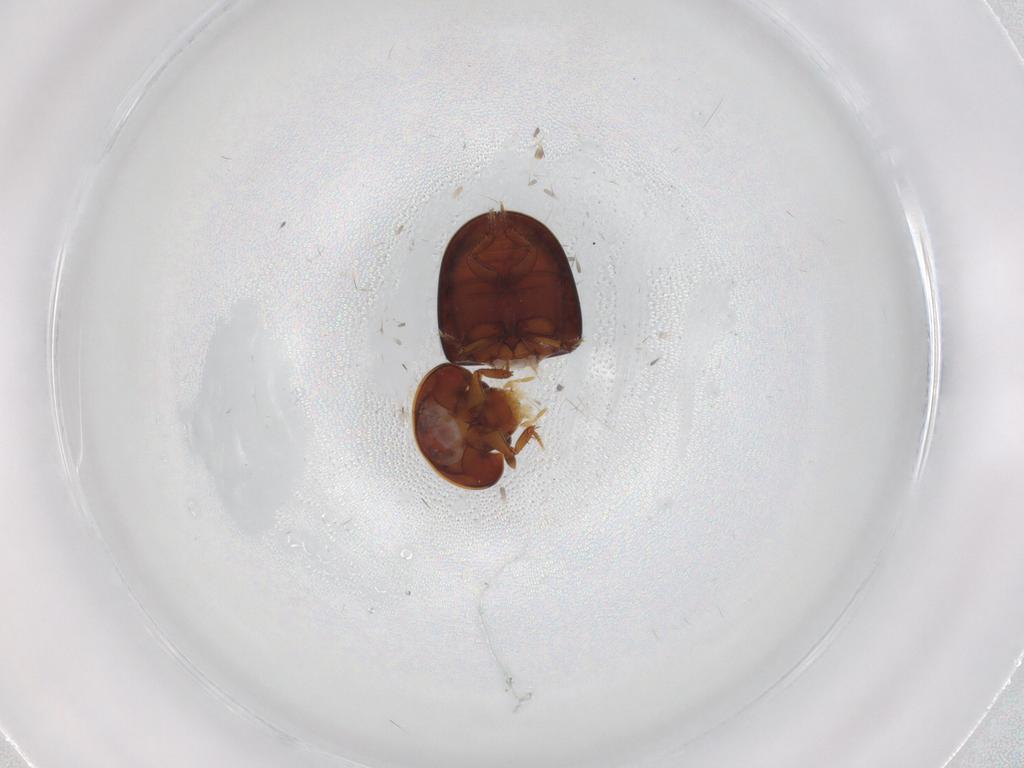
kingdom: Animalia
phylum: Arthropoda
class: Insecta
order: Coleoptera
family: Hydrophilidae
